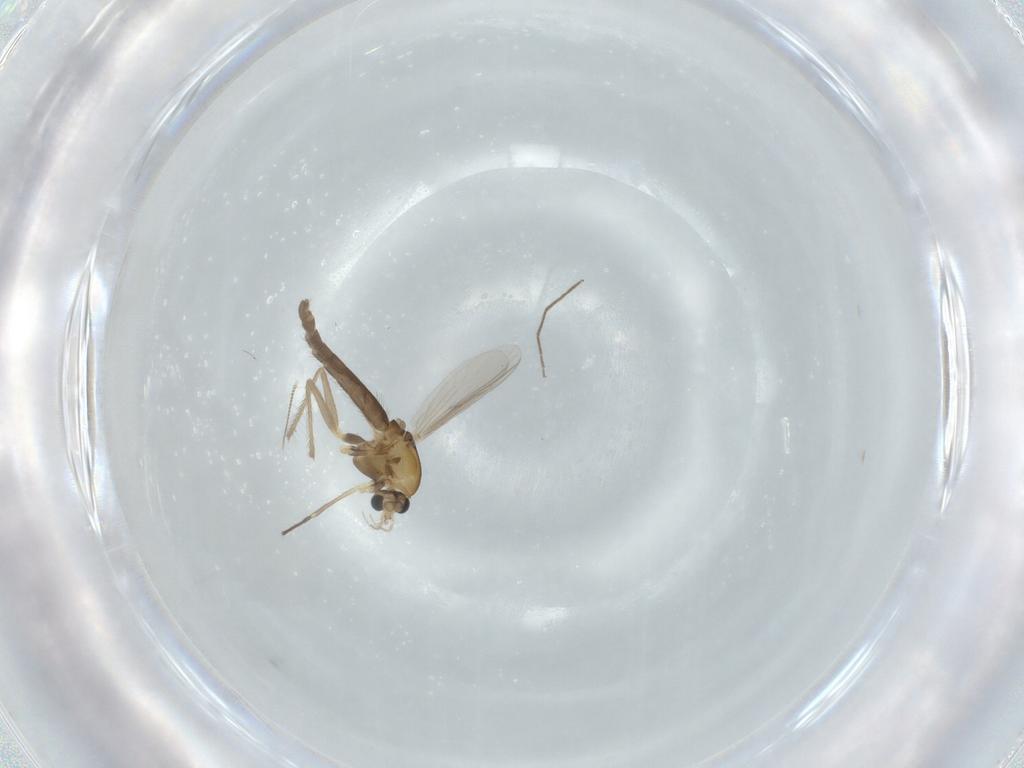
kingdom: Animalia
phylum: Arthropoda
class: Insecta
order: Diptera
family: Chironomidae
